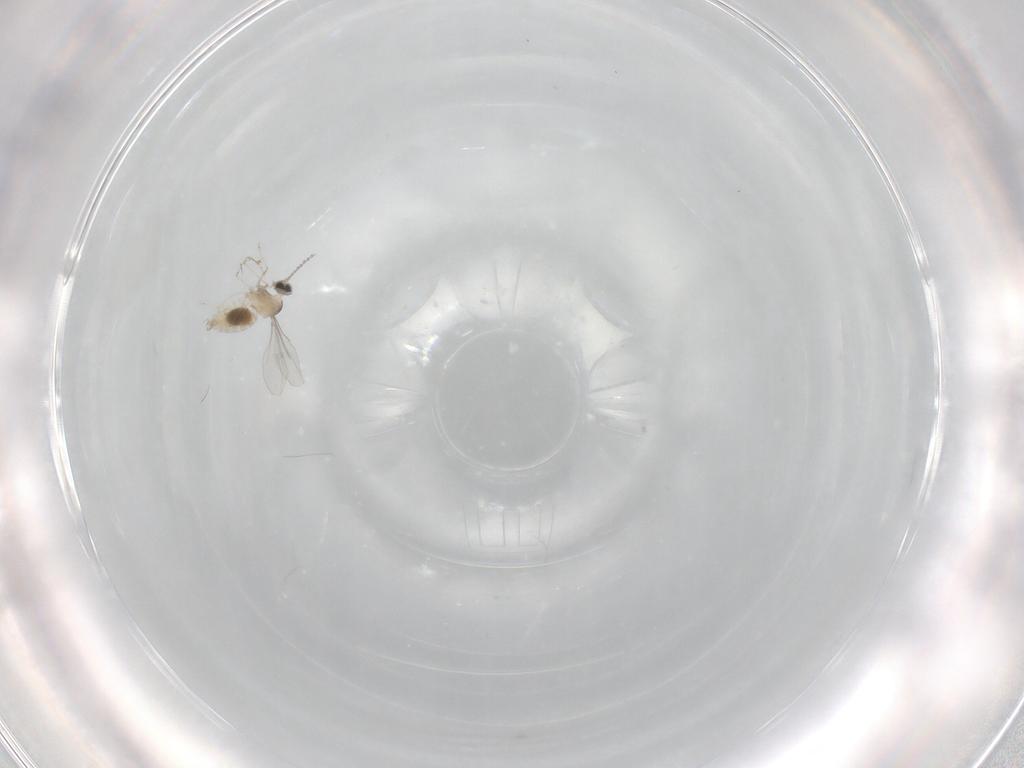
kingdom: Animalia
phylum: Arthropoda
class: Insecta
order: Diptera
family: Cecidomyiidae
